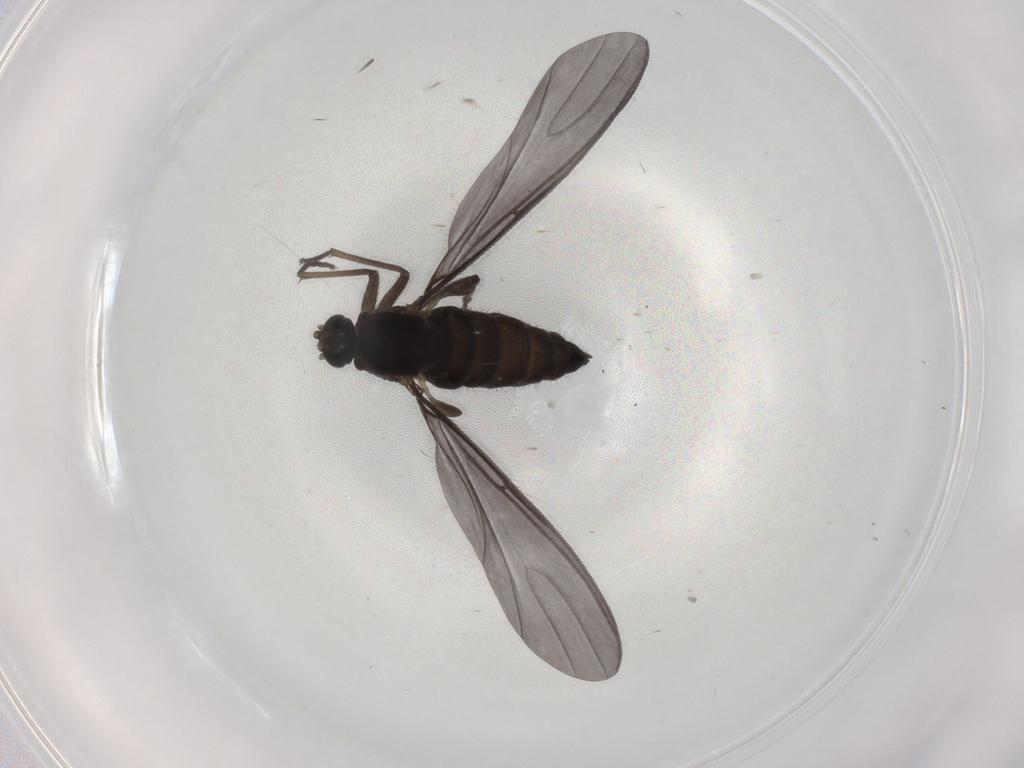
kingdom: Animalia
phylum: Arthropoda
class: Insecta
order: Diptera
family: Sciaridae
